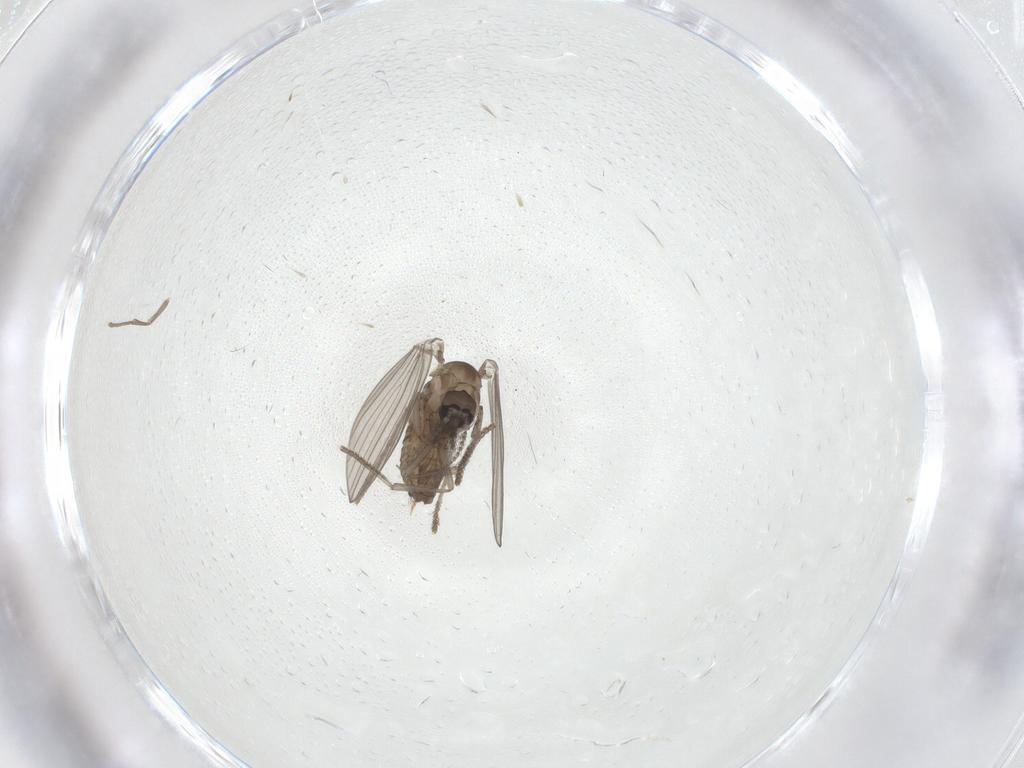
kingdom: Animalia
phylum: Arthropoda
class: Insecta
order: Diptera
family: Psychodidae
